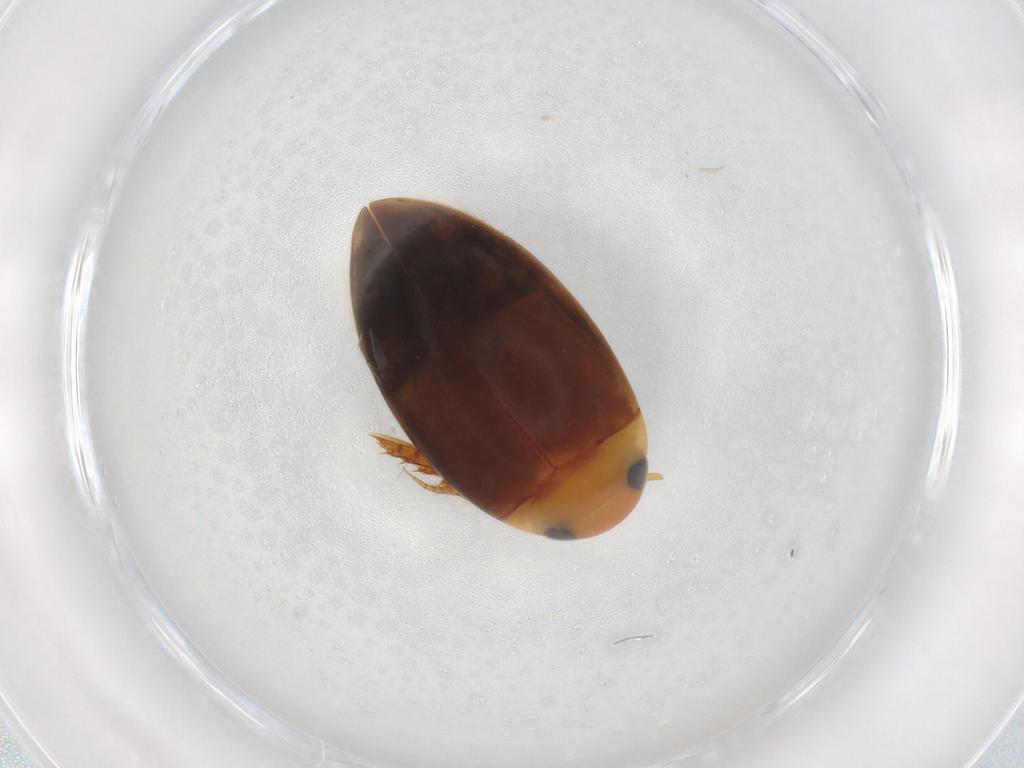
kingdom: Animalia
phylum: Arthropoda
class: Insecta
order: Coleoptera
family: Dytiscidae
